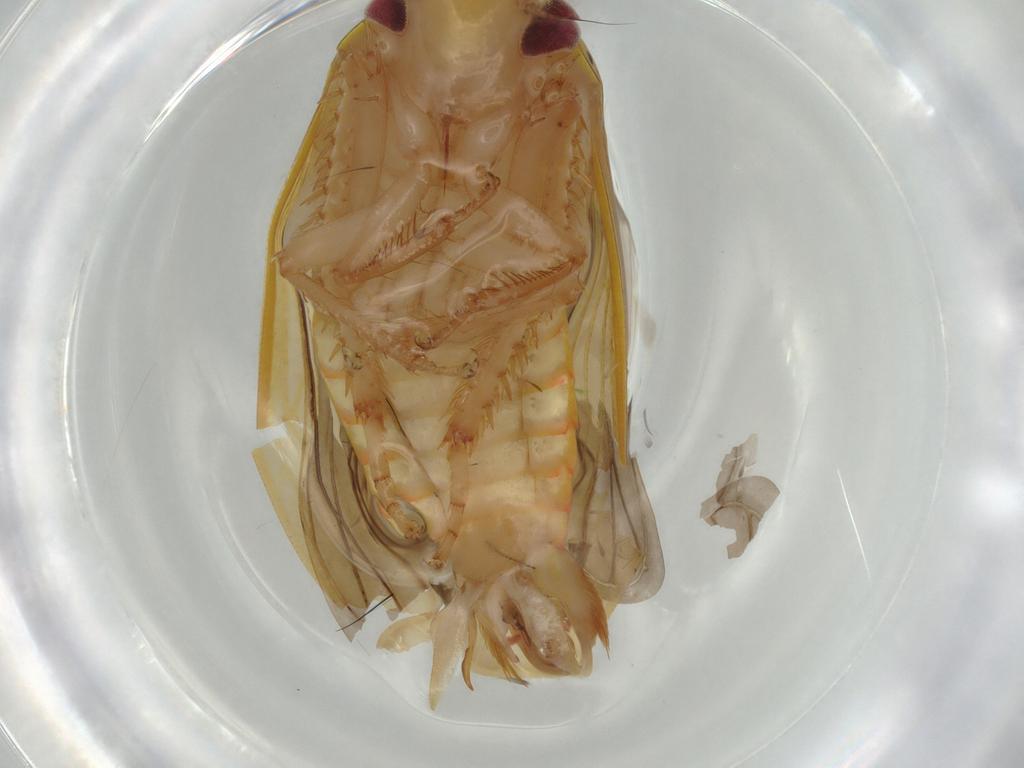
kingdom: Animalia
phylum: Arthropoda
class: Insecta
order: Hemiptera
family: Cicadellidae
